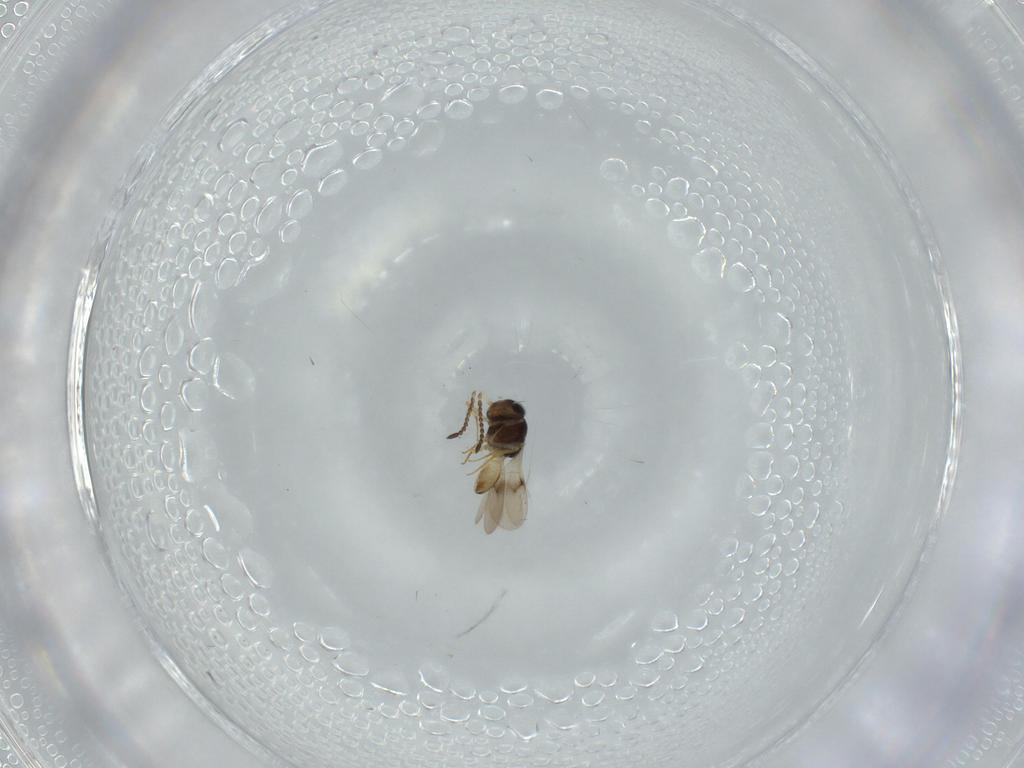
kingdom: Animalia
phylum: Arthropoda
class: Insecta
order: Hymenoptera
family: Scelionidae
